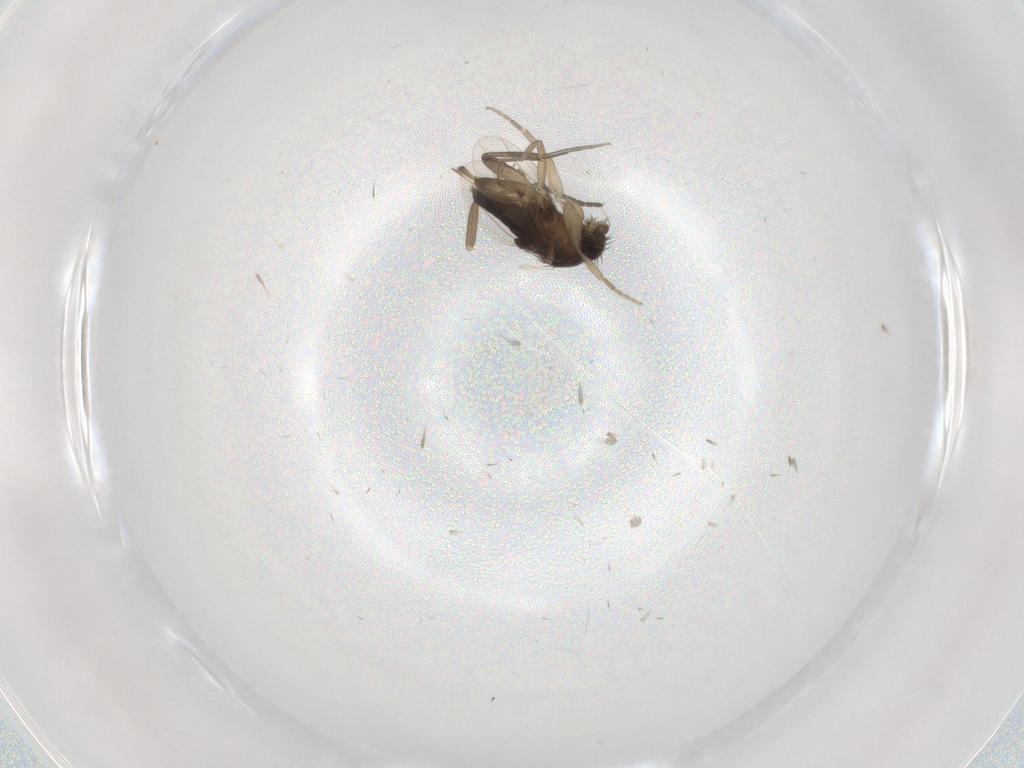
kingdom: Animalia
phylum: Arthropoda
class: Insecta
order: Diptera
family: Sciaridae
